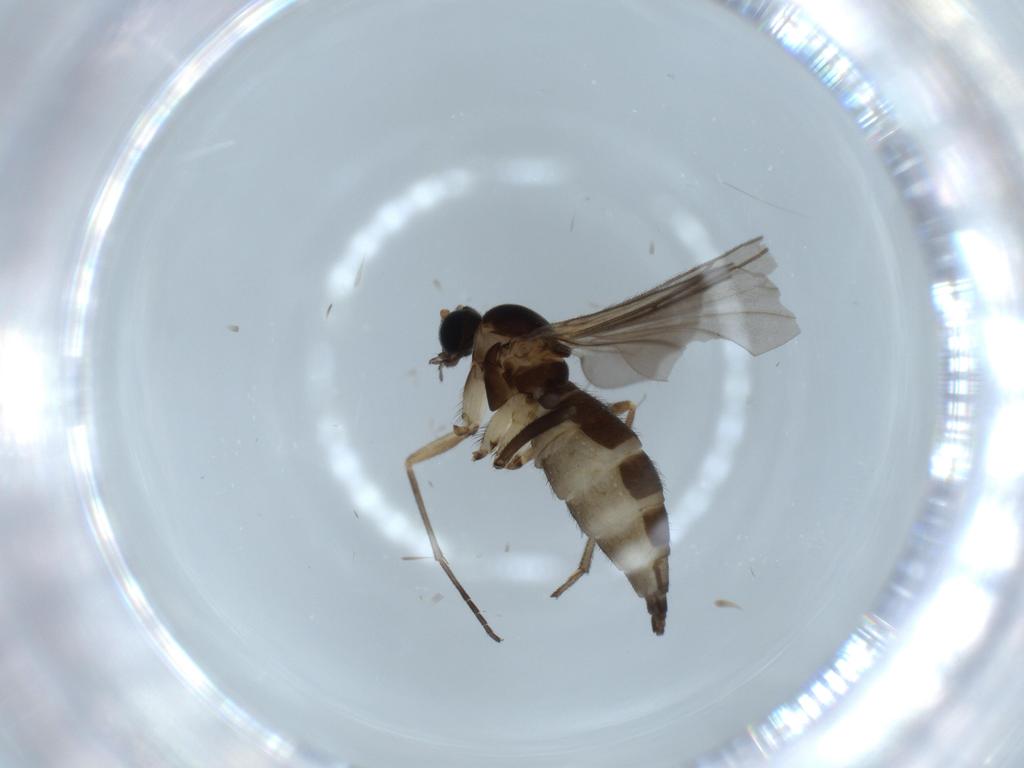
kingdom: Animalia
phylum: Arthropoda
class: Insecta
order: Diptera
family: Sciaridae
